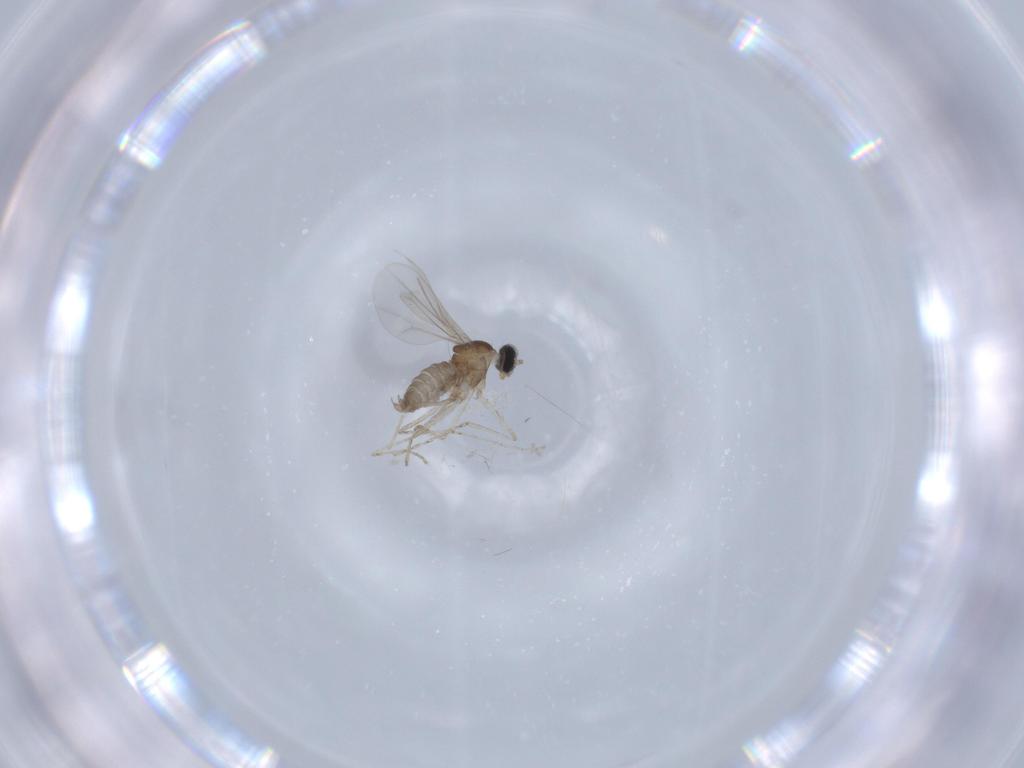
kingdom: Animalia
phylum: Arthropoda
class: Insecta
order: Diptera
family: Cecidomyiidae
